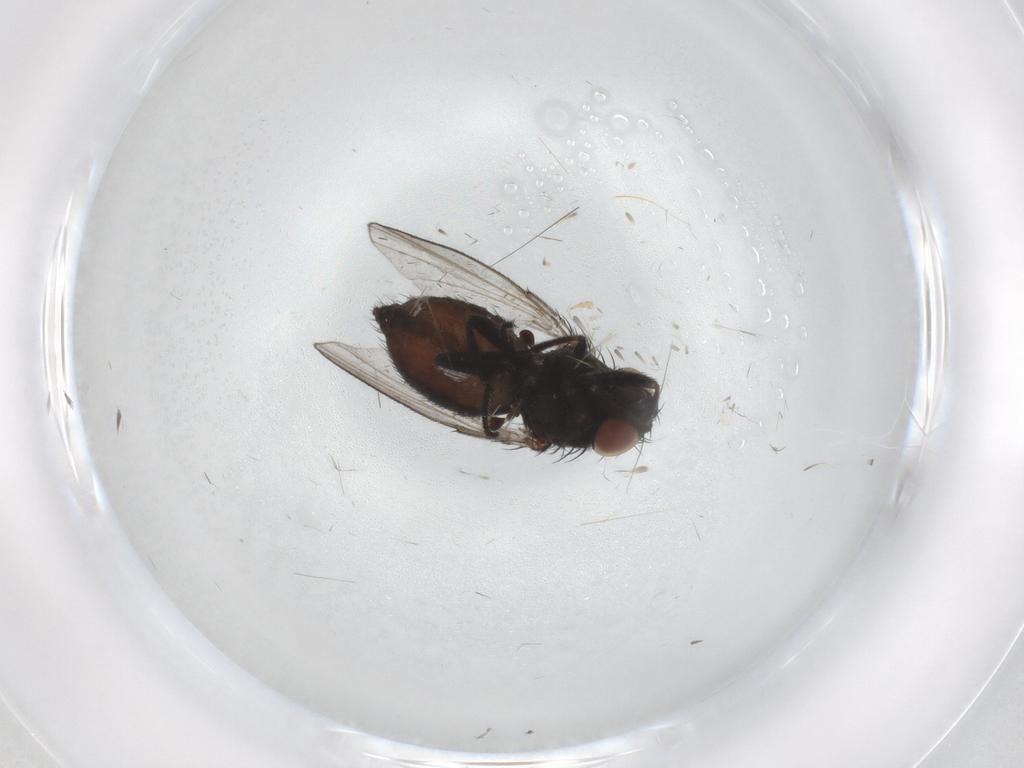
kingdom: Animalia
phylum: Arthropoda
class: Insecta
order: Diptera
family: Milichiidae
